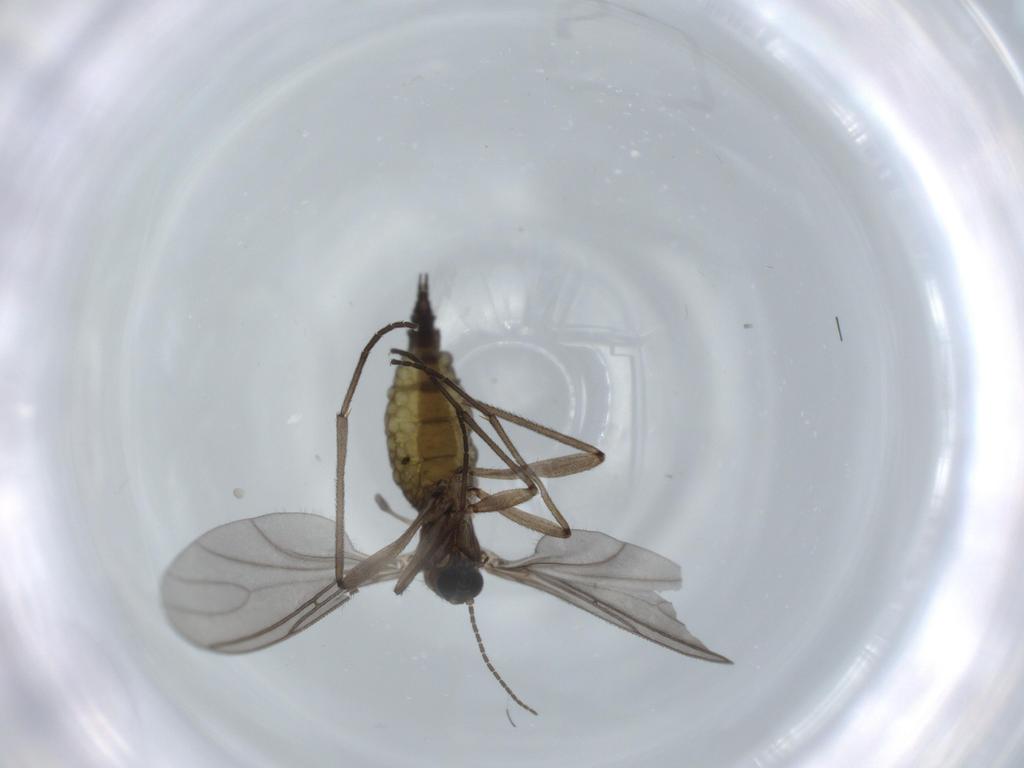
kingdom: Animalia
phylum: Arthropoda
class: Insecta
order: Diptera
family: Sciaridae
